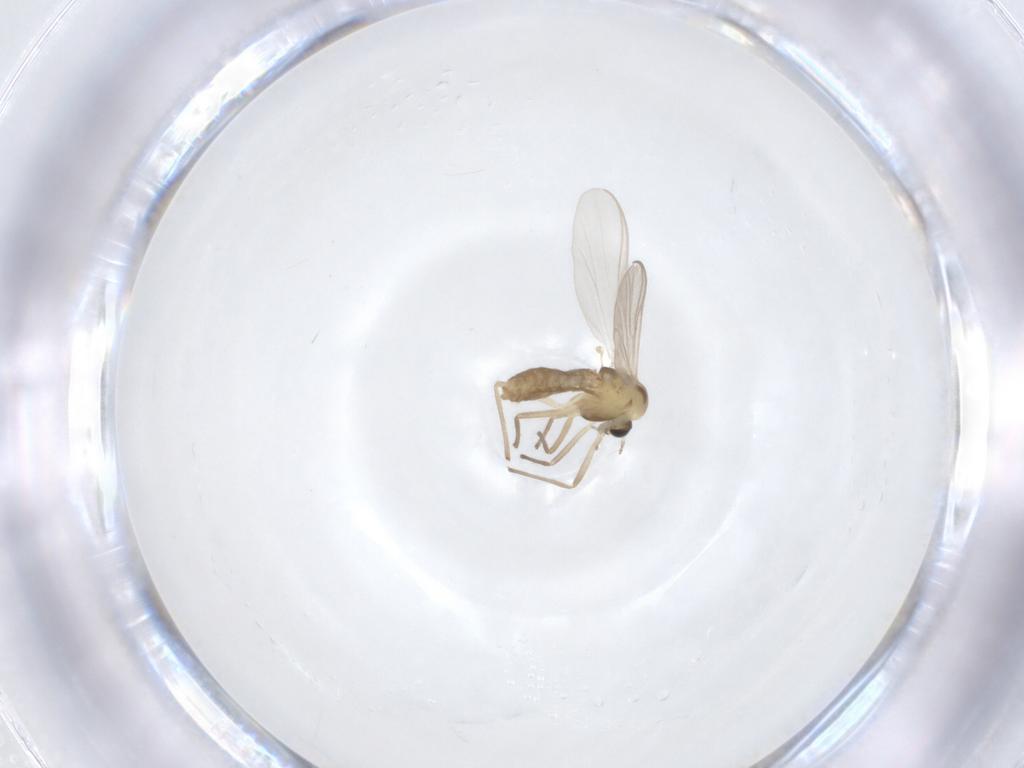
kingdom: Animalia
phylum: Arthropoda
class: Insecta
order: Diptera
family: Chironomidae
